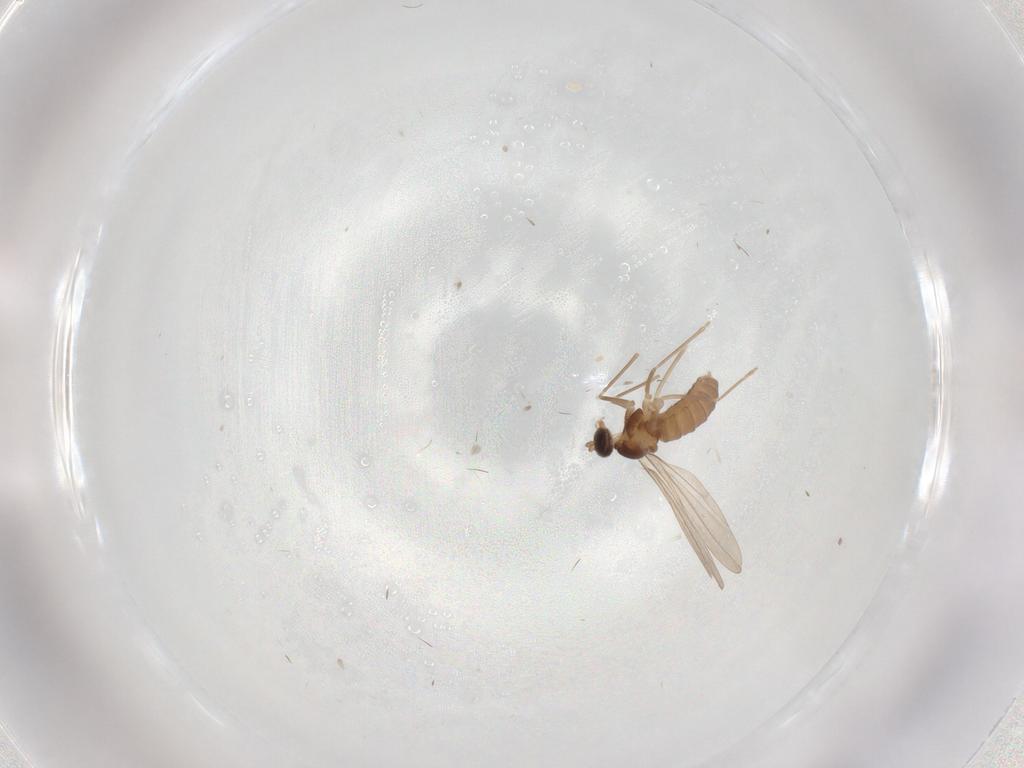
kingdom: Animalia
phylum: Arthropoda
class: Insecta
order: Diptera
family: Cecidomyiidae
